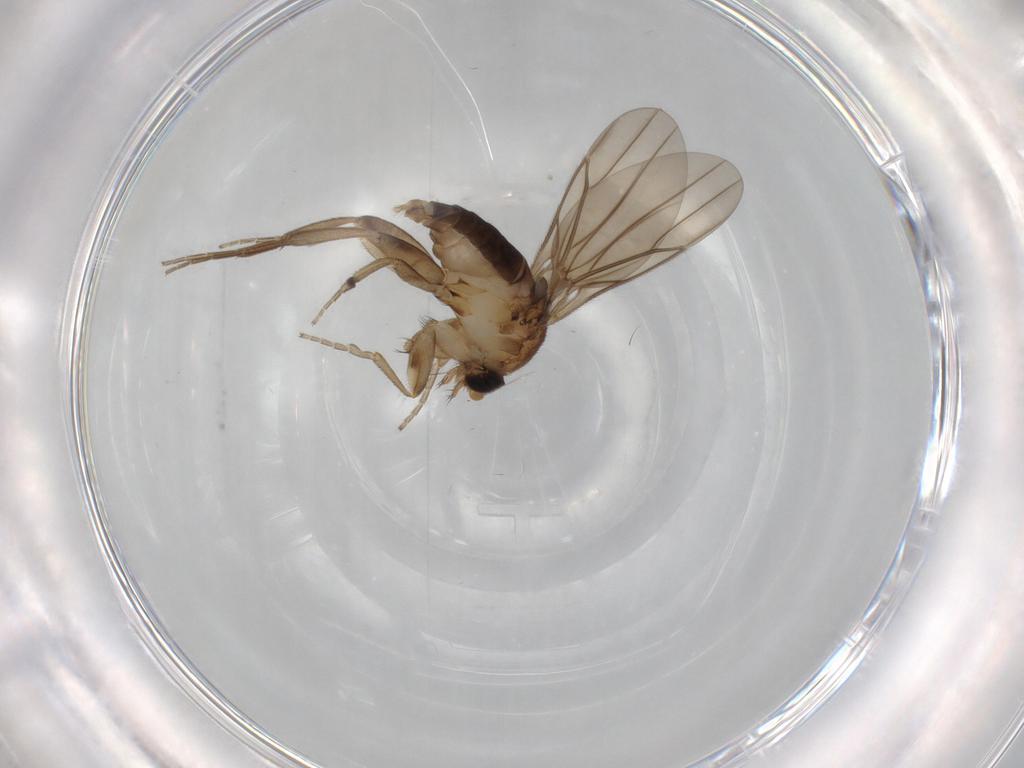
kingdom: Animalia
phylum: Arthropoda
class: Insecta
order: Diptera
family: Phoridae
